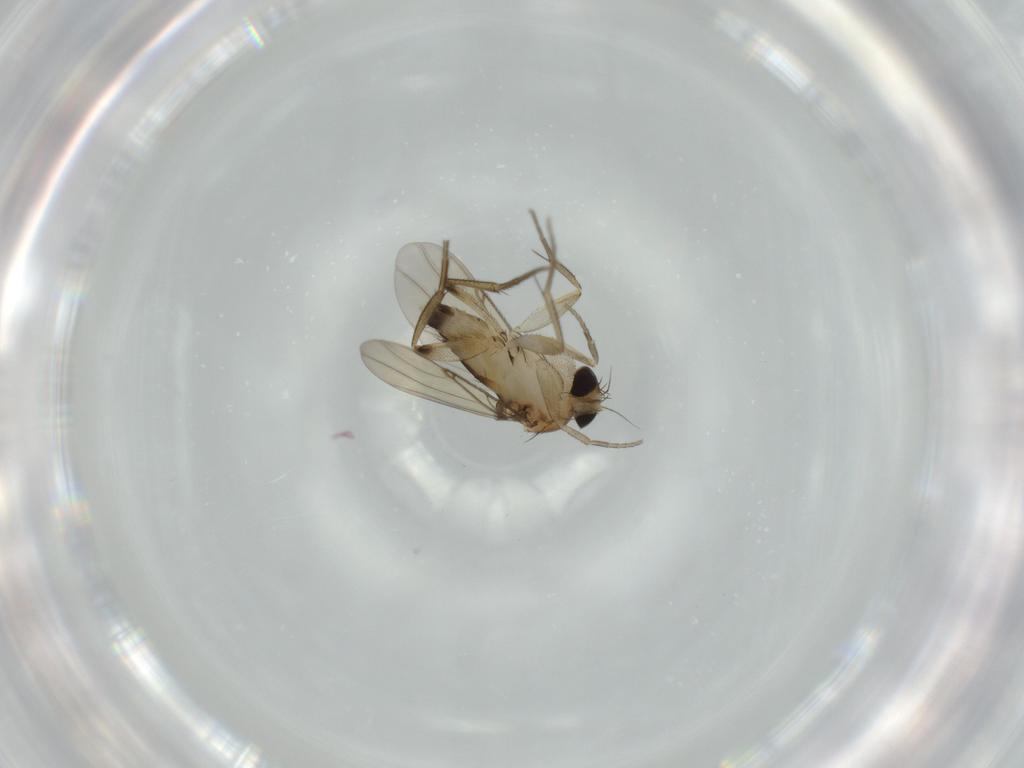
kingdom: Animalia
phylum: Arthropoda
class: Insecta
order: Diptera
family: Phoridae
